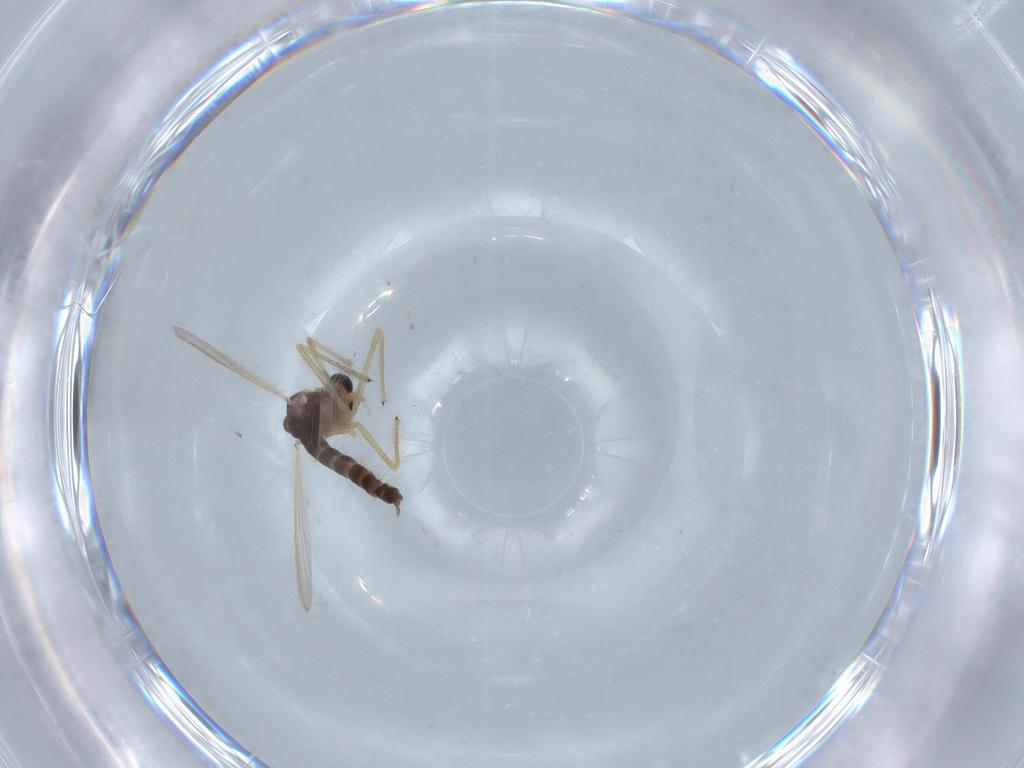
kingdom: Animalia
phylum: Arthropoda
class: Insecta
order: Diptera
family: Chironomidae
